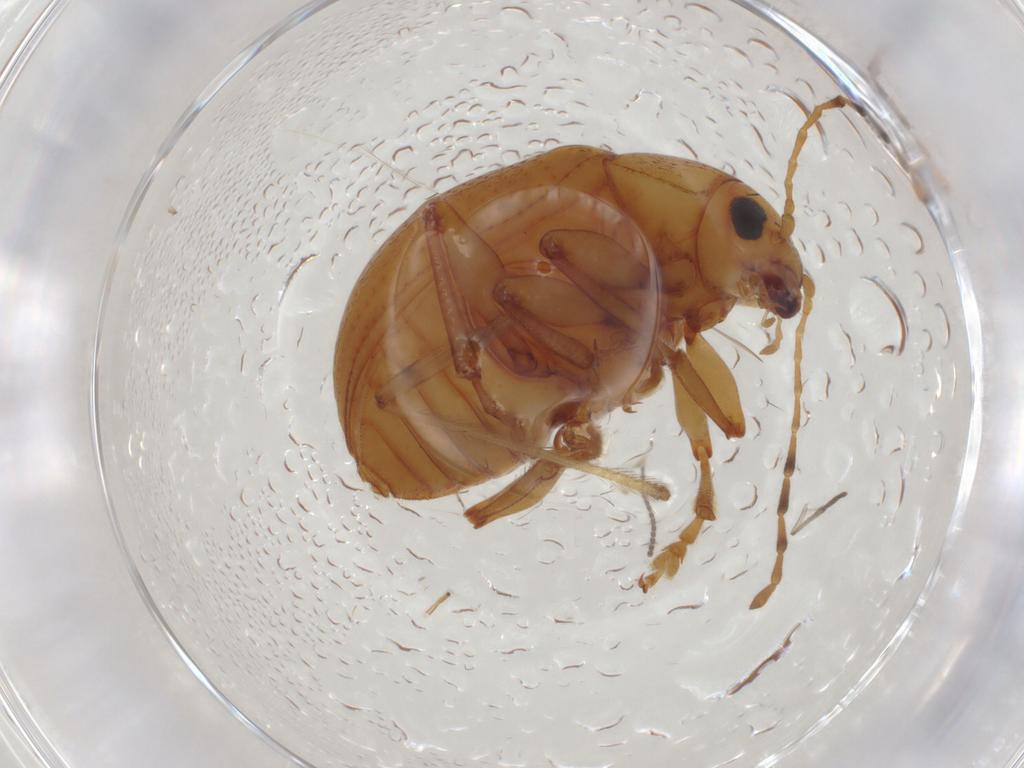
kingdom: Animalia
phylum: Arthropoda
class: Insecta
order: Coleoptera
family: Chrysomelidae
